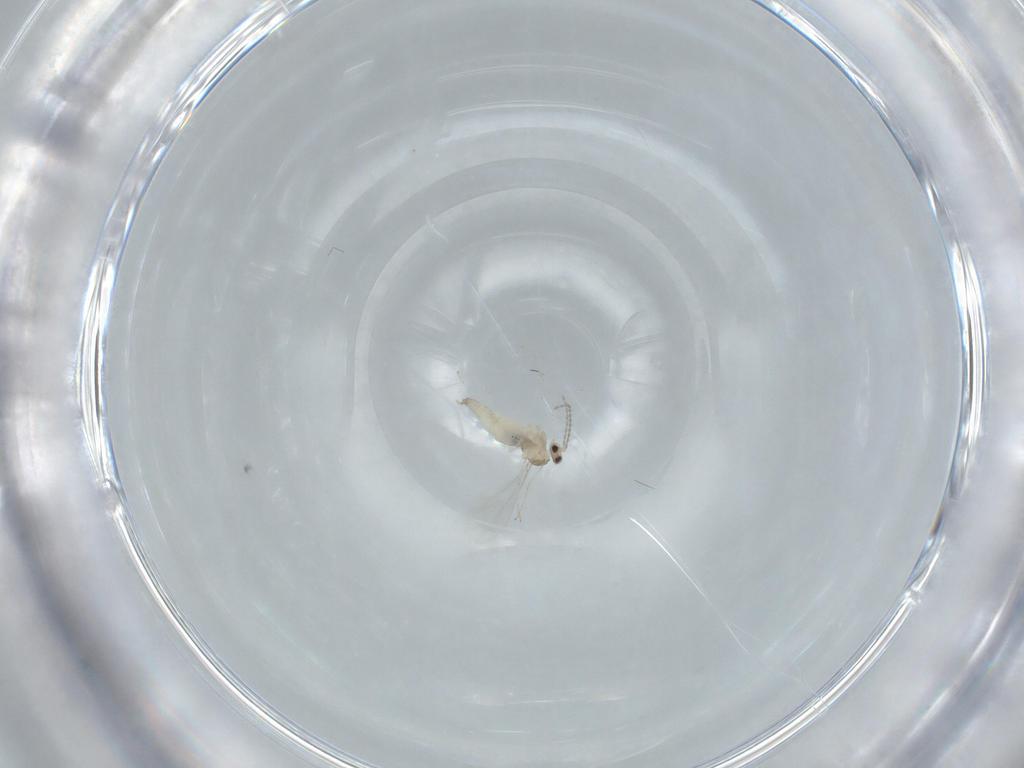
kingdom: Animalia
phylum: Arthropoda
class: Insecta
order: Diptera
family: Cecidomyiidae
